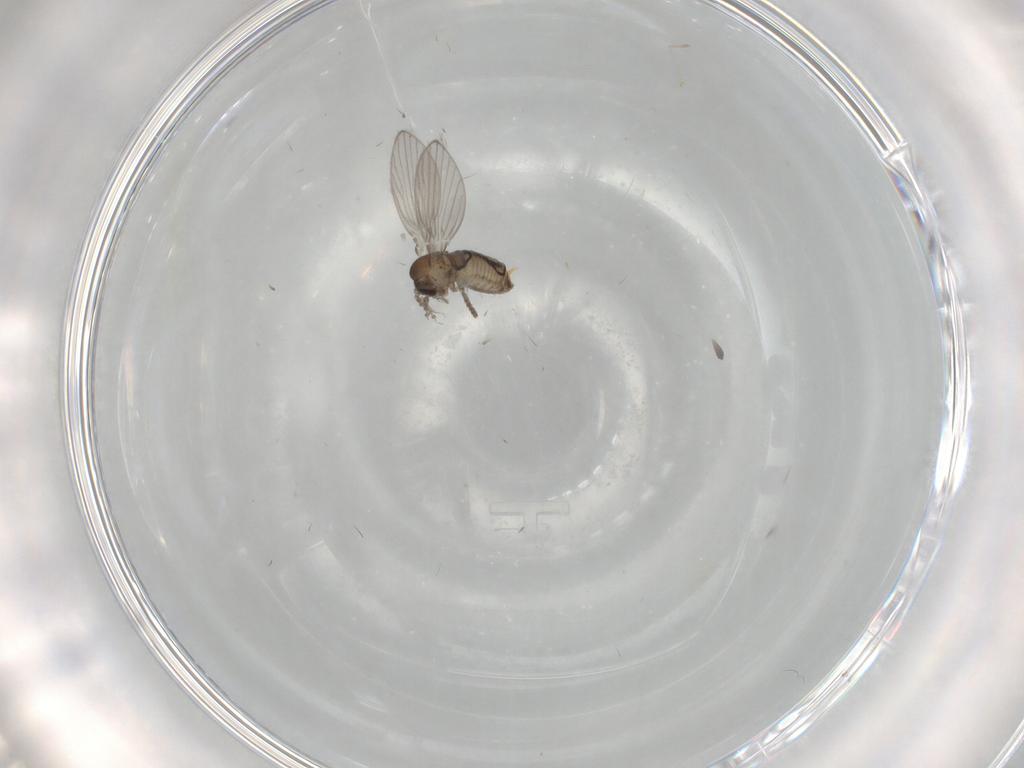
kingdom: Animalia
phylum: Arthropoda
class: Insecta
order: Diptera
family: Psychodidae
